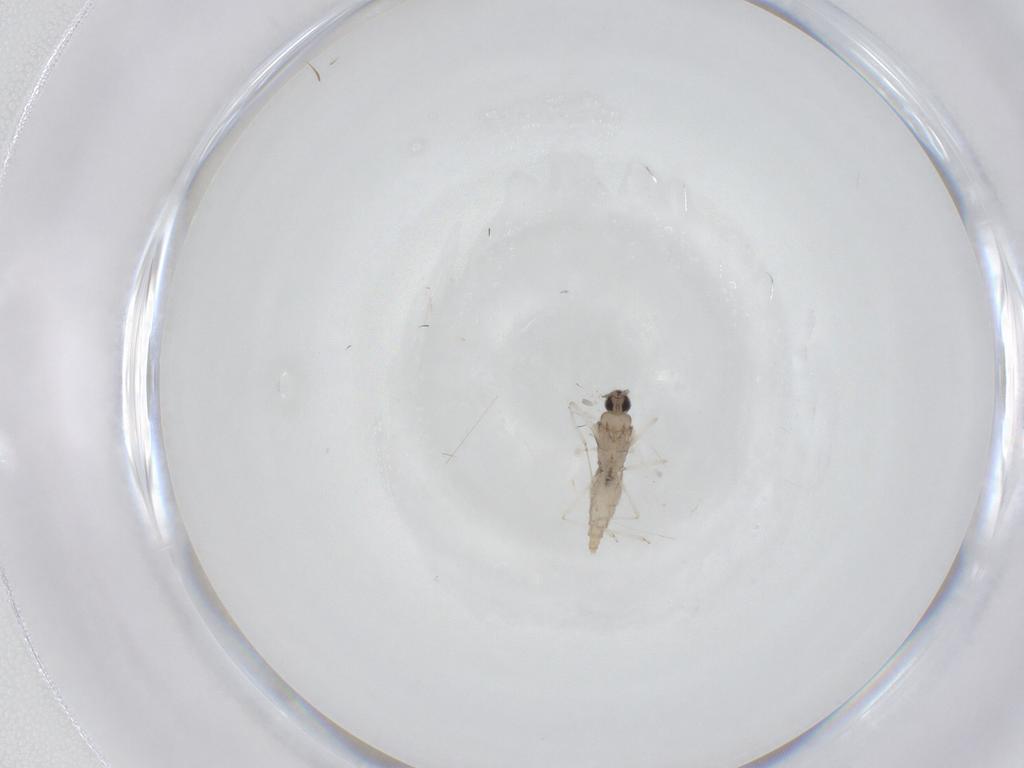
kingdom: Animalia
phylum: Arthropoda
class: Insecta
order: Diptera
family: Cecidomyiidae
